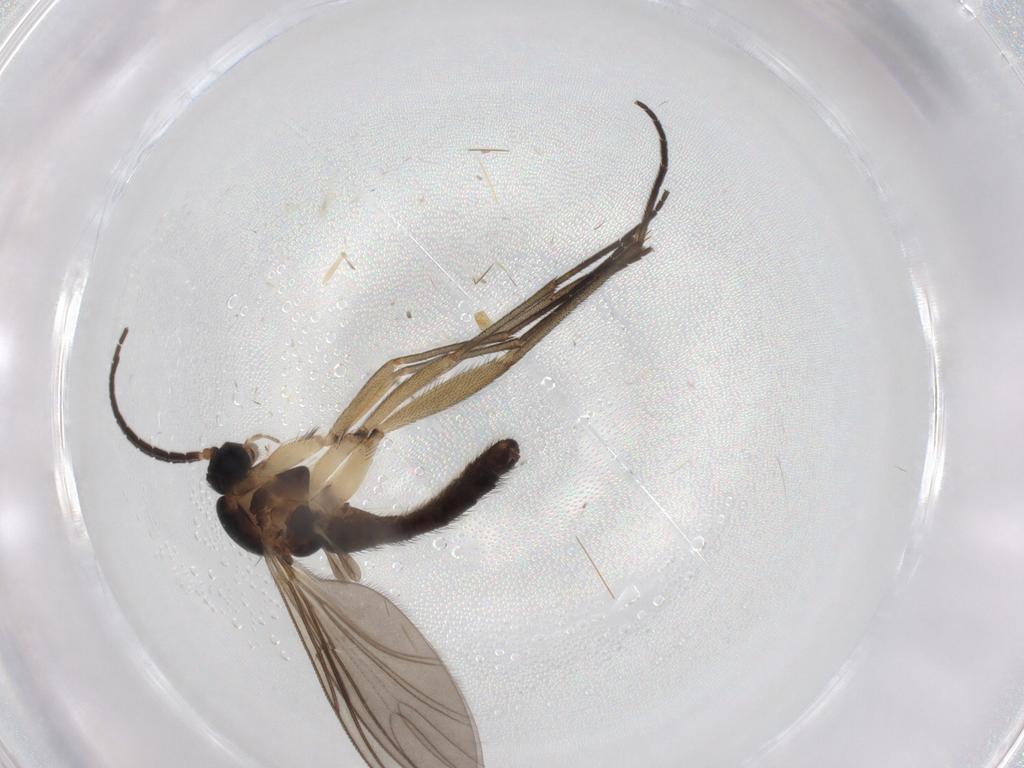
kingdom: Animalia
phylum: Arthropoda
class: Insecta
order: Diptera
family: Sciaridae
